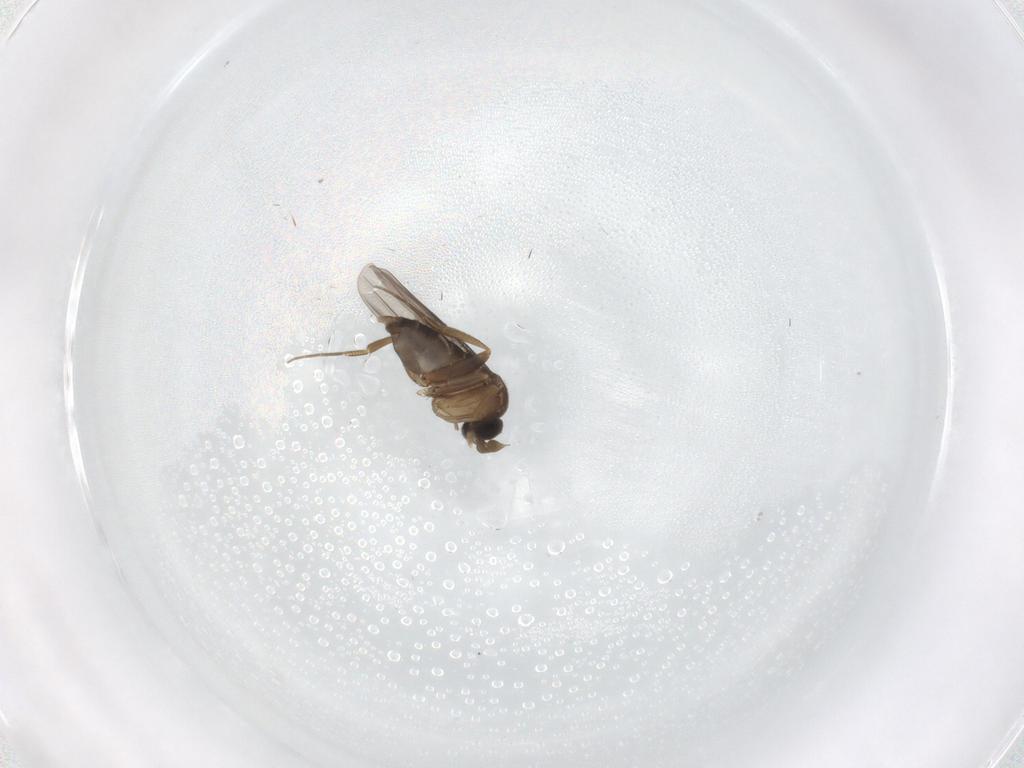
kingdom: Animalia
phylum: Arthropoda
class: Insecta
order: Diptera
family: Phoridae
